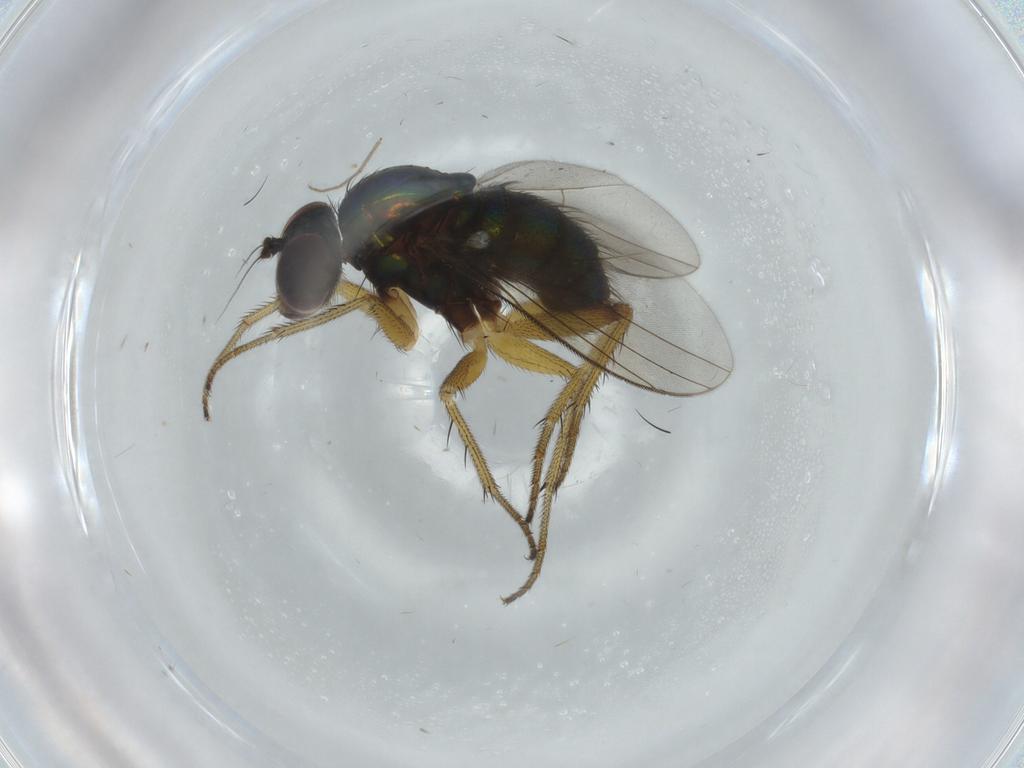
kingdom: Animalia
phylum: Arthropoda
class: Insecta
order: Diptera
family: Dolichopodidae
